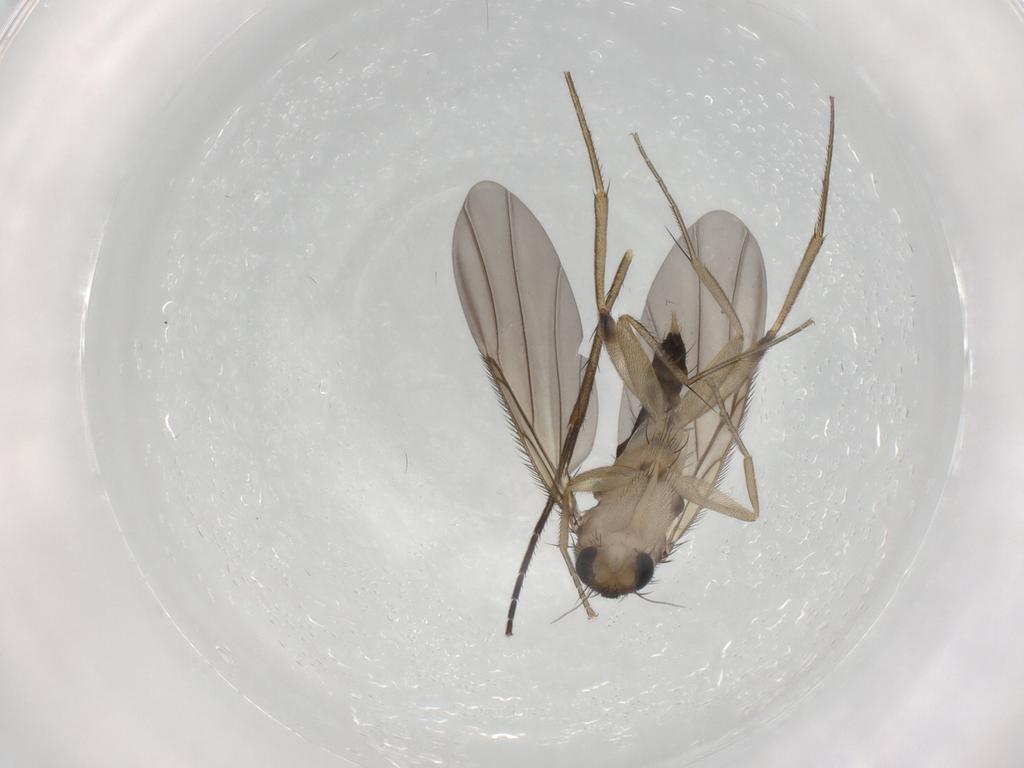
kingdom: Animalia
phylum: Arthropoda
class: Insecta
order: Diptera
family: Phoridae
